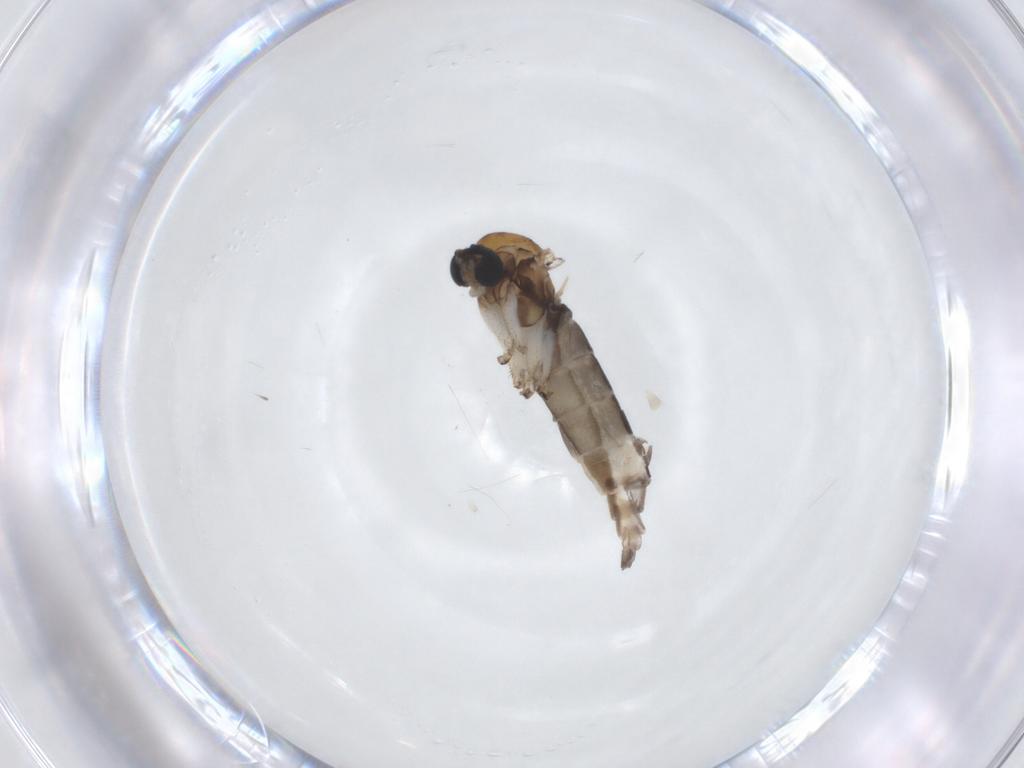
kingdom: Animalia
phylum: Arthropoda
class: Insecta
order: Diptera
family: Sciaridae
